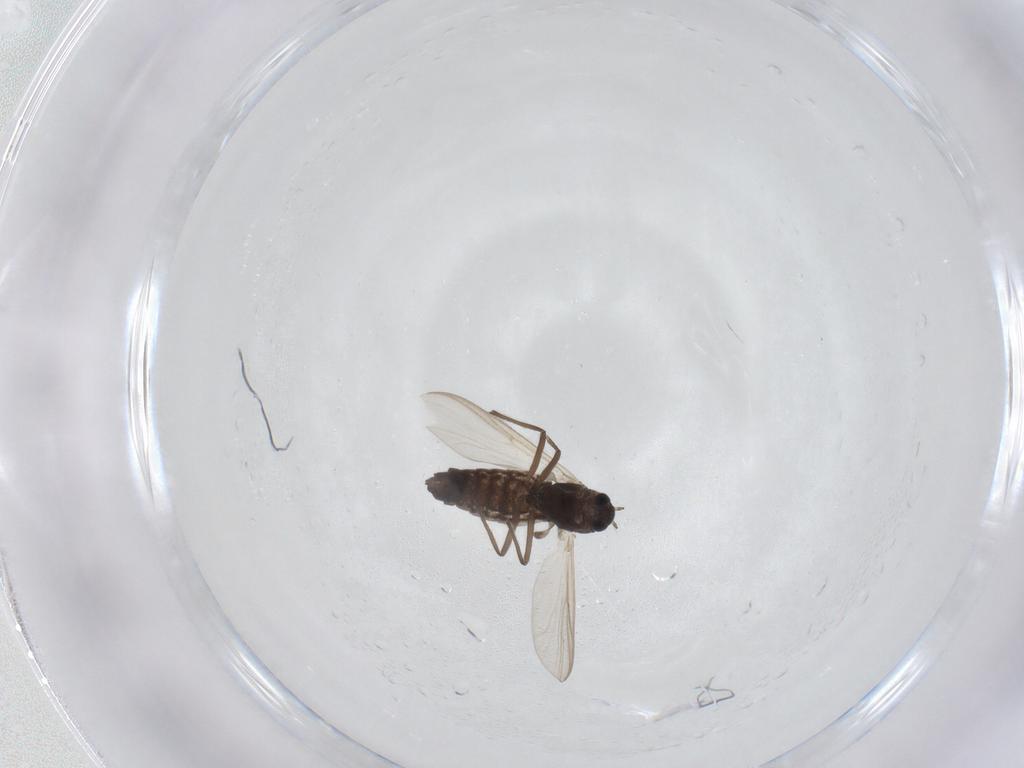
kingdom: Animalia
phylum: Arthropoda
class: Insecta
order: Diptera
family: Chironomidae
